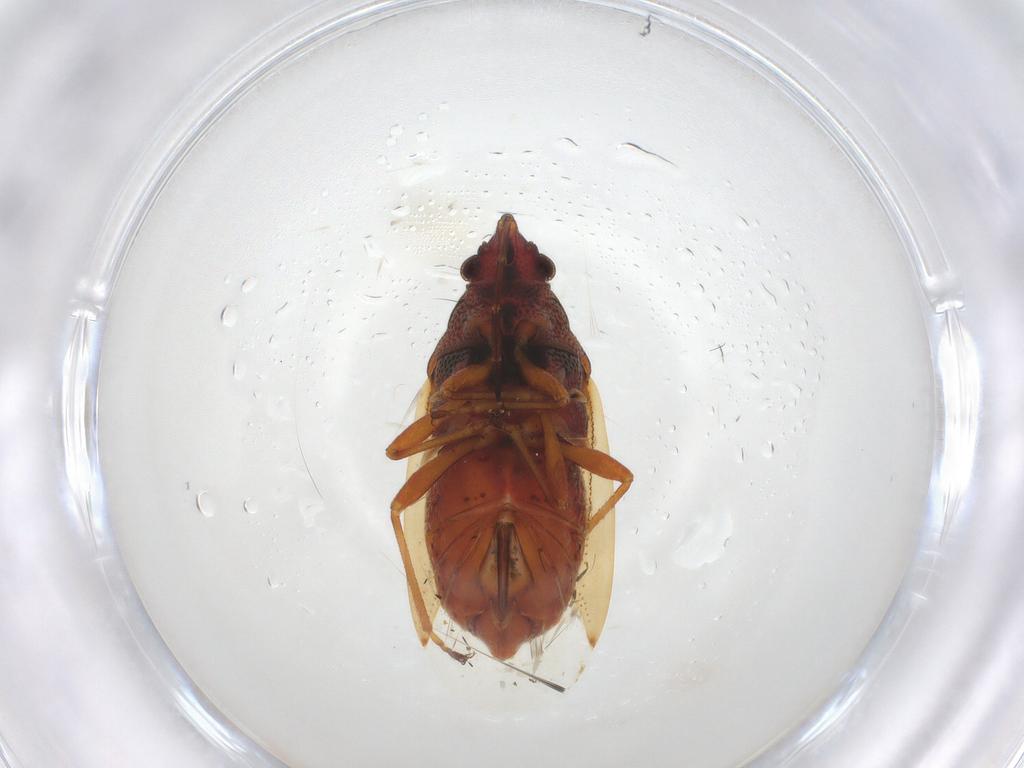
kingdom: Animalia
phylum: Arthropoda
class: Insecta
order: Hemiptera
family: Lygaeidae
